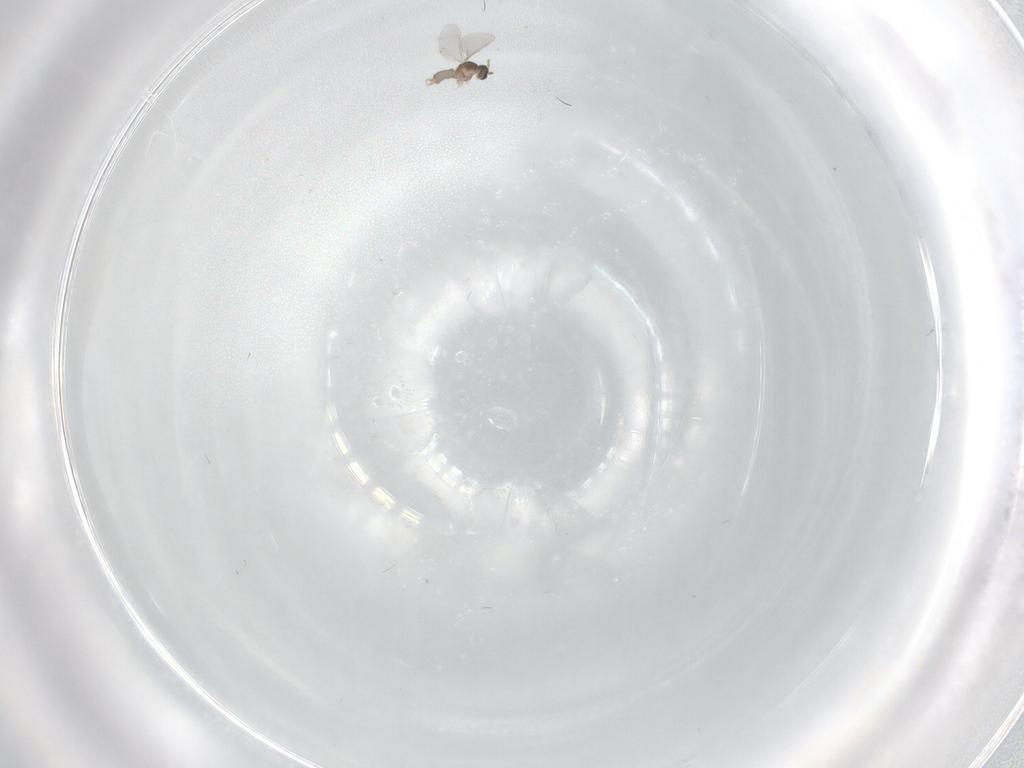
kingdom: Animalia
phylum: Arthropoda
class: Insecta
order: Diptera
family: Cecidomyiidae
